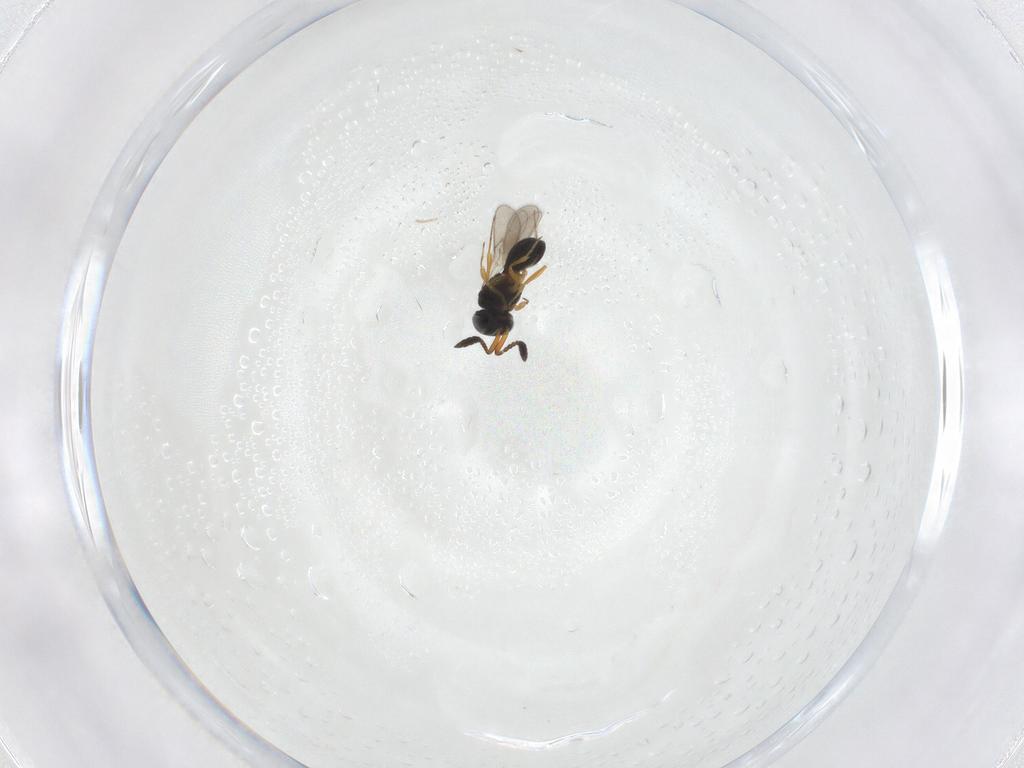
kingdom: Animalia
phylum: Arthropoda
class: Insecta
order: Hymenoptera
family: Scelionidae
